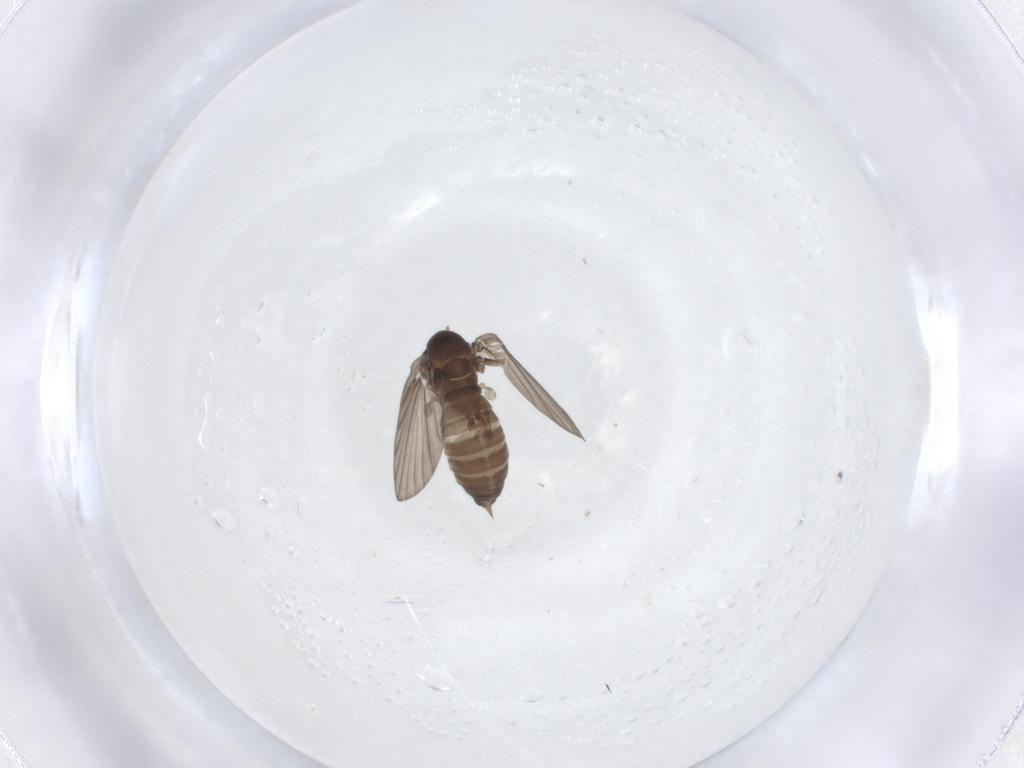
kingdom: Animalia
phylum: Arthropoda
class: Insecta
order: Diptera
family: Psychodidae
